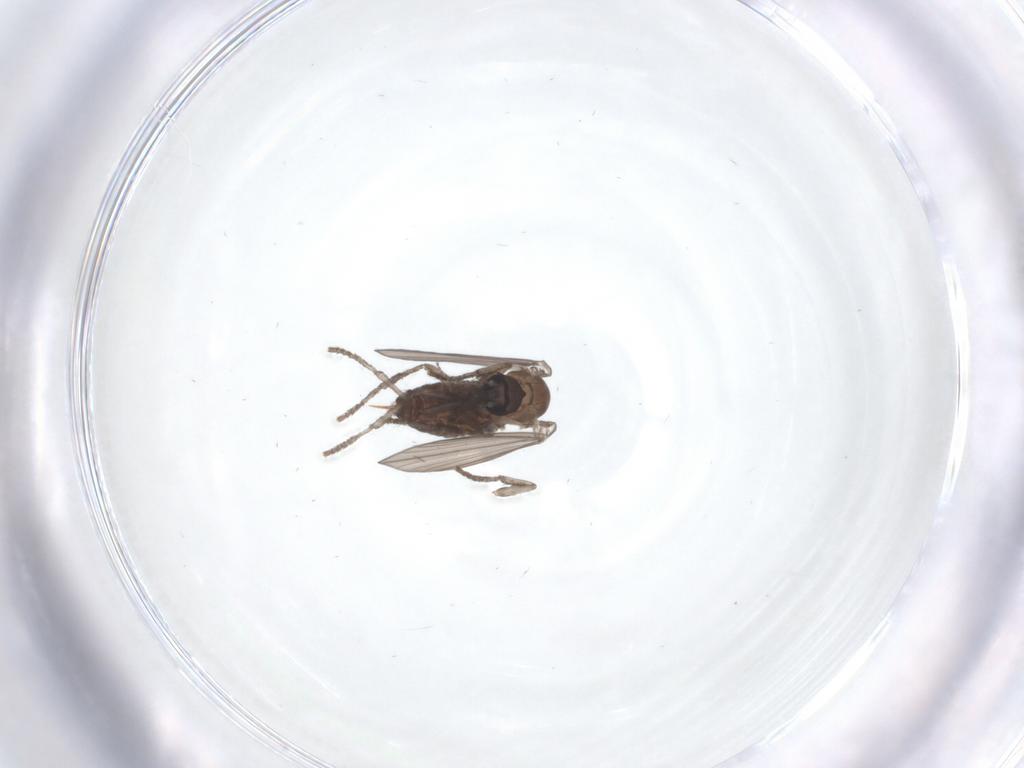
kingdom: Animalia
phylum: Arthropoda
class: Insecta
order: Diptera
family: Psychodidae
